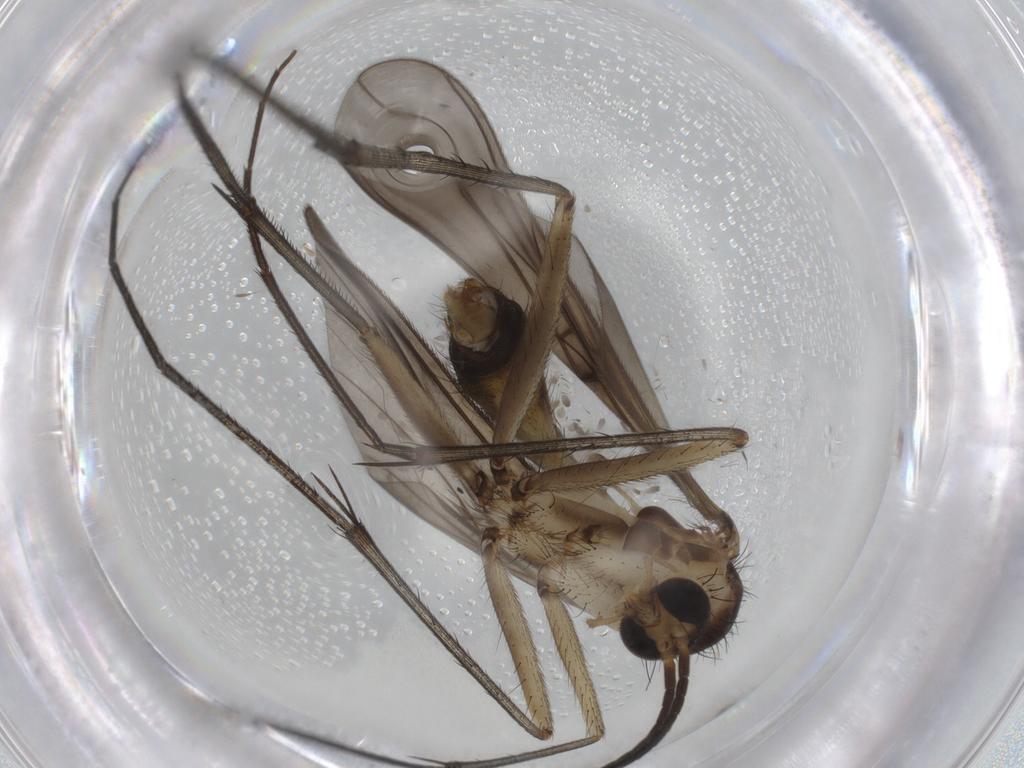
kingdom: Animalia
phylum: Arthropoda
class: Insecta
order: Diptera
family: Mycetophilidae
